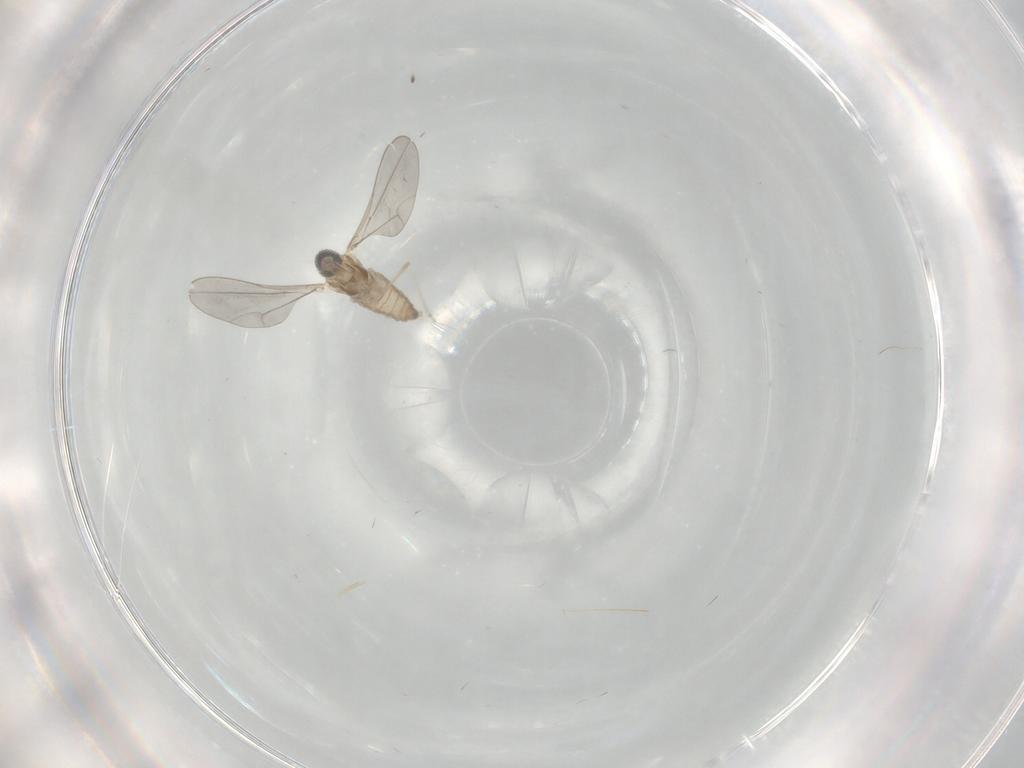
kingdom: Animalia
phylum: Arthropoda
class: Insecta
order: Diptera
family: Cecidomyiidae
